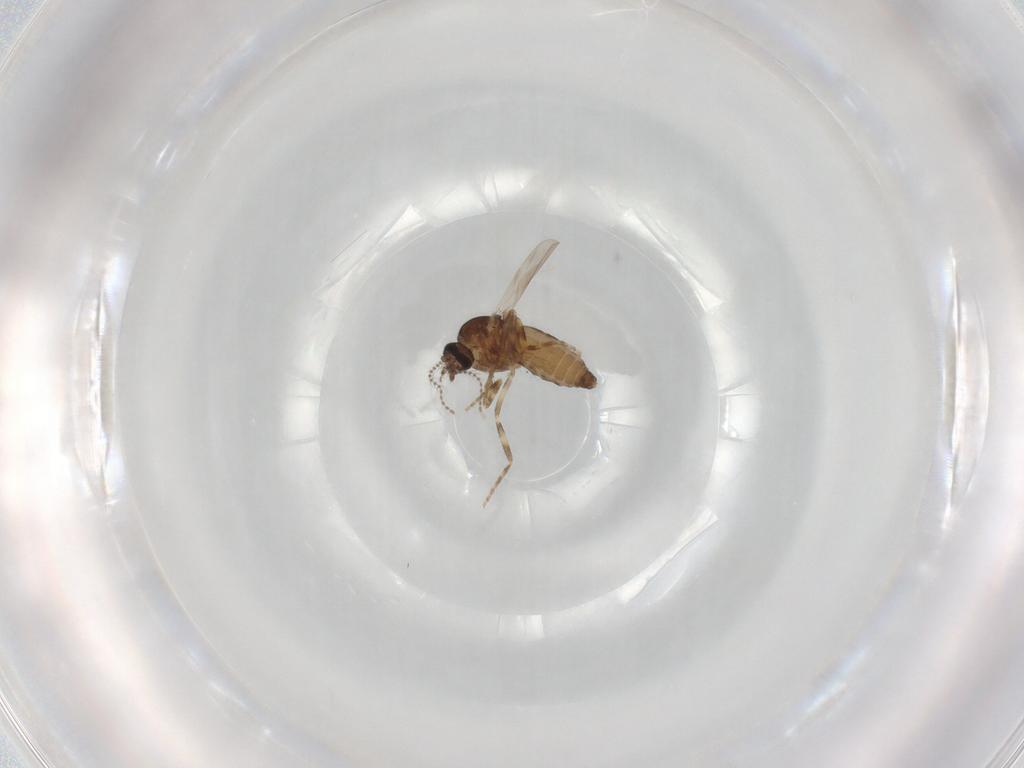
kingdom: Animalia
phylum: Arthropoda
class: Insecta
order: Diptera
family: Ceratopogonidae
